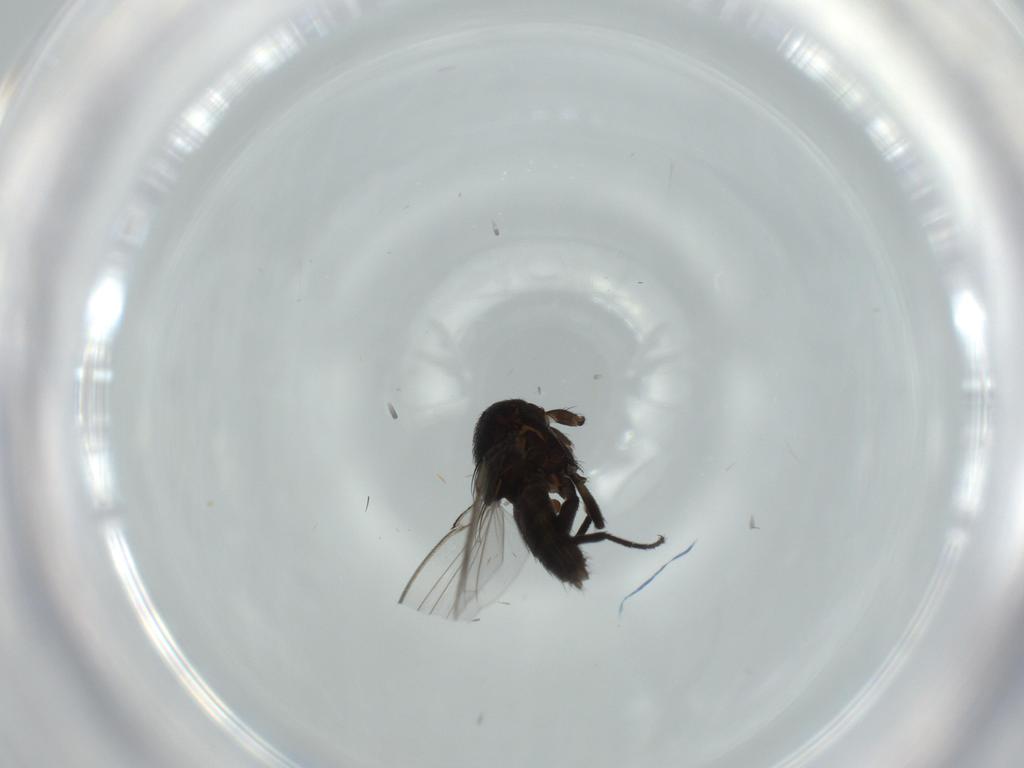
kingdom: Animalia
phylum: Arthropoda
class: Insecta
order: Diptera
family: Milichiidae
